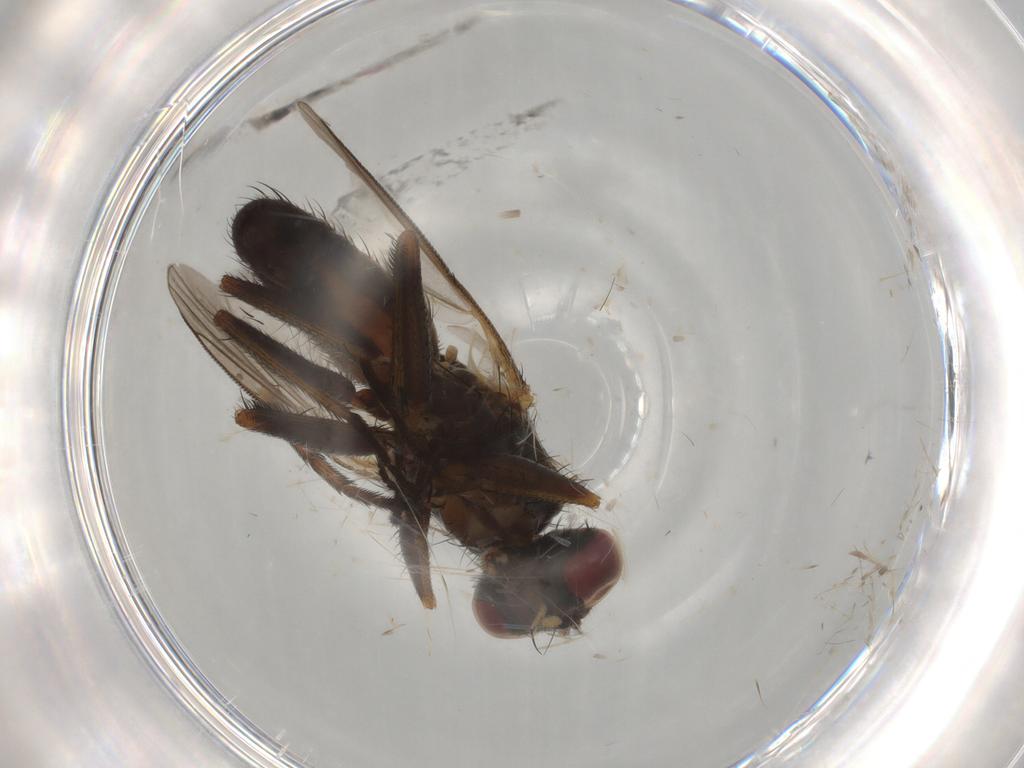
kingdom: Animalia
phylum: Arthropoda
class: Insecta
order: Diptera
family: Muscidae
